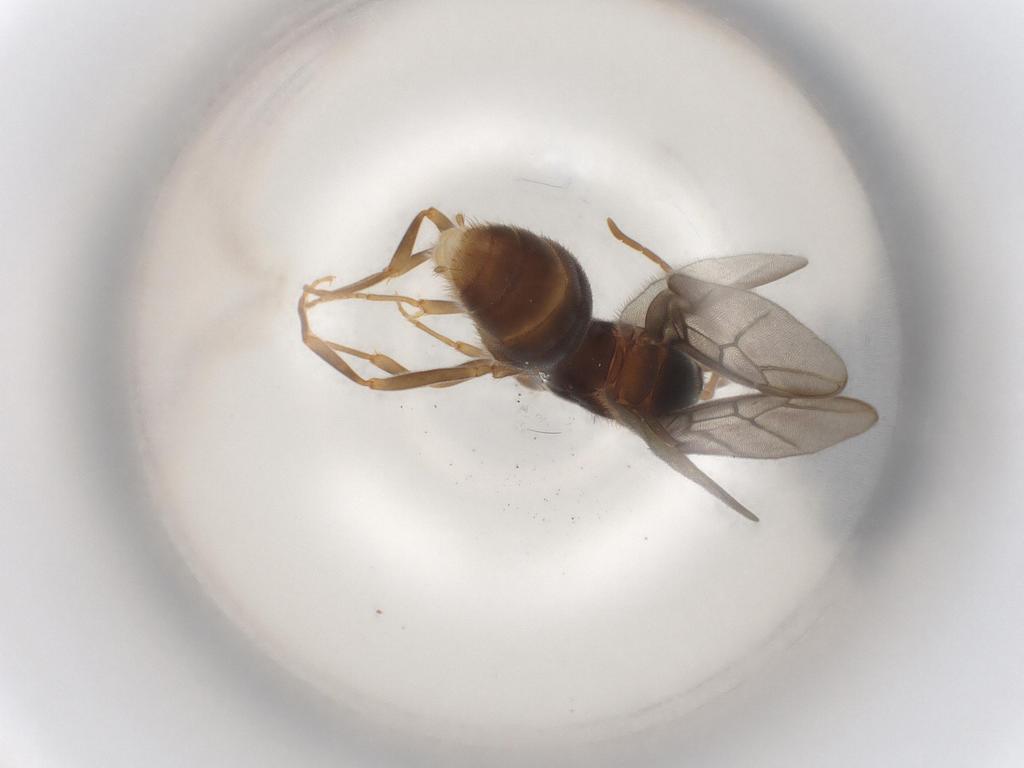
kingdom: Animalia
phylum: Arthropoda
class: Insecta
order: Hymenoptera
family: Formicidae
